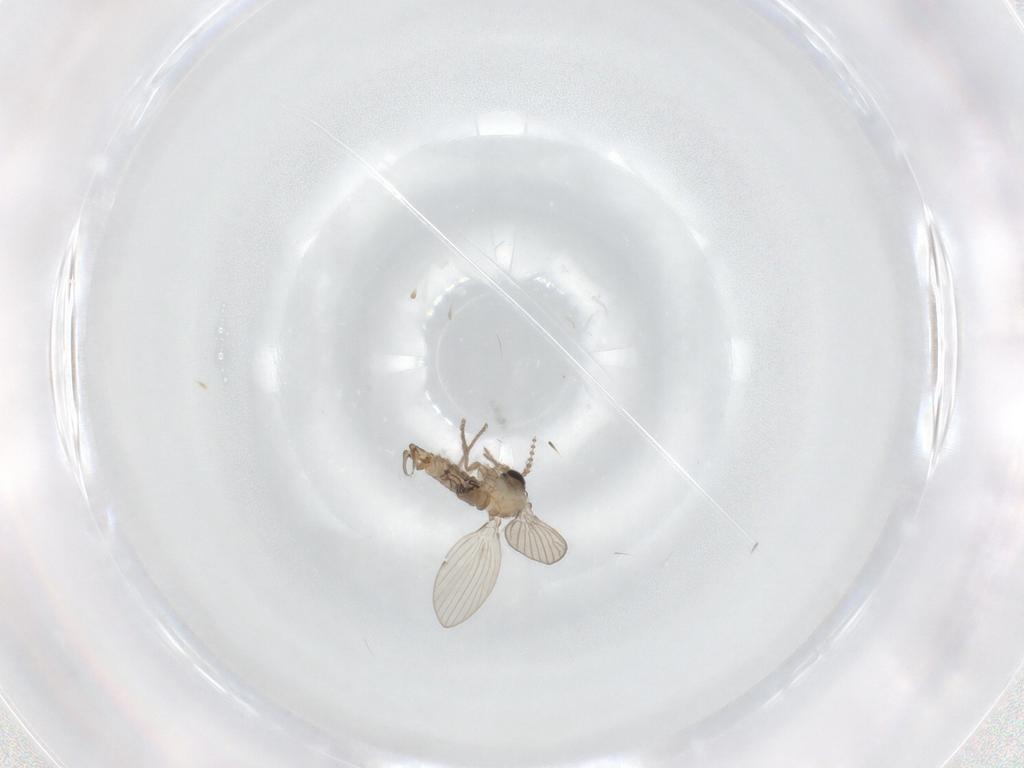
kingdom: Animalia
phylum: Arthropoda
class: Insecta
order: Diptera
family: Psychodidae
